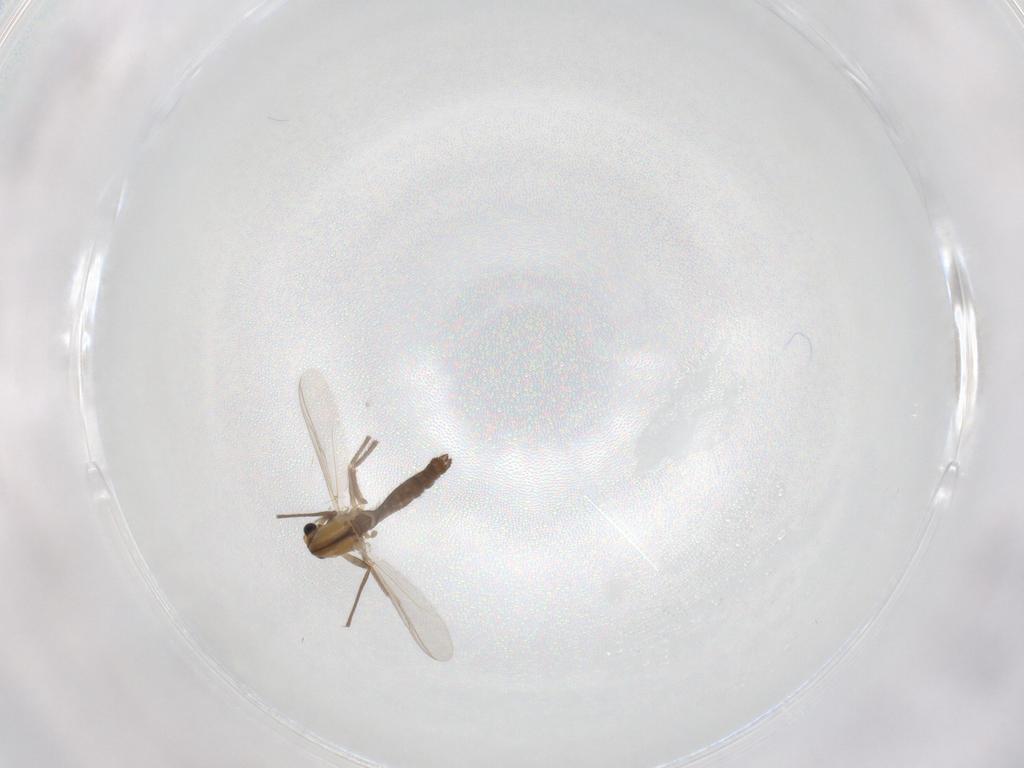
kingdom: Animalia
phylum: Arthropoda
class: Insecta
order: Diptera
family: Chironomidae
